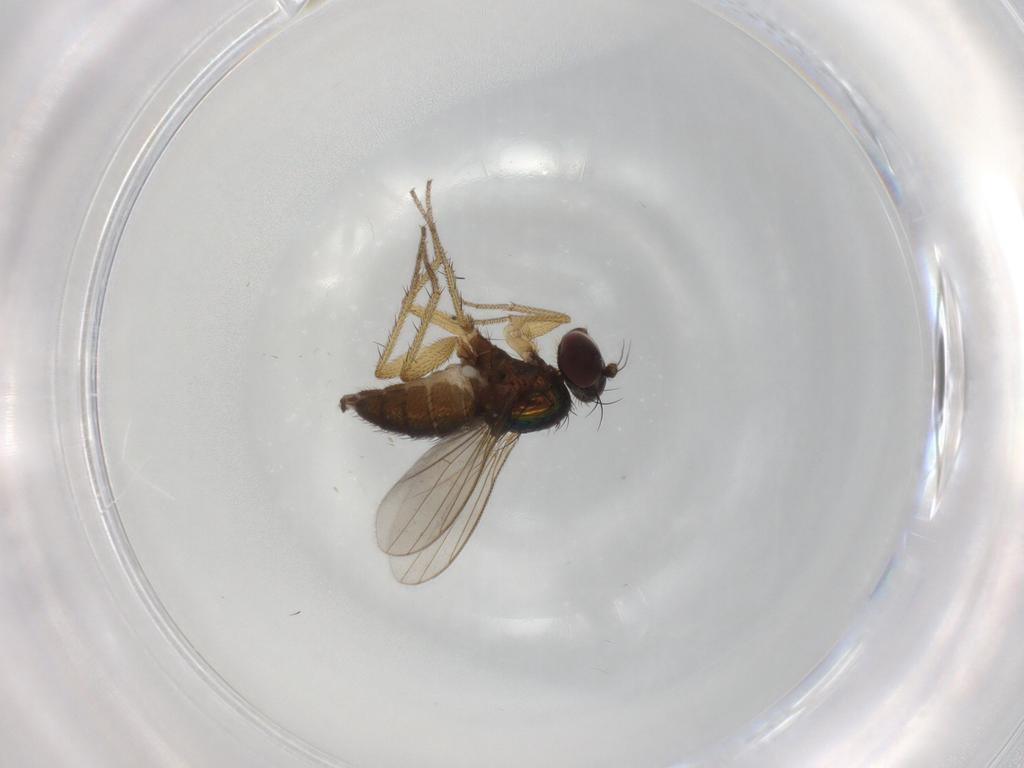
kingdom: Animalia
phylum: Arthropoda
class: Insecta
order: Diptera
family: Dolichopodidae
